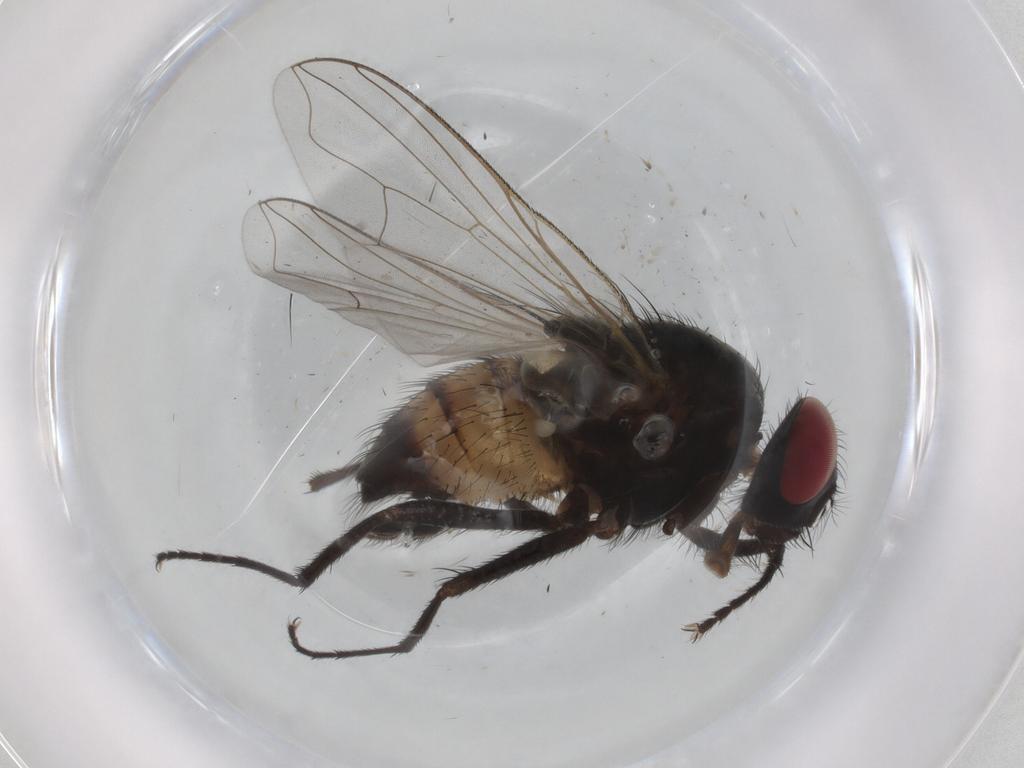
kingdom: Animalia
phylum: Arthropoda
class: Insecta
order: Diptera
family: Muscidae
